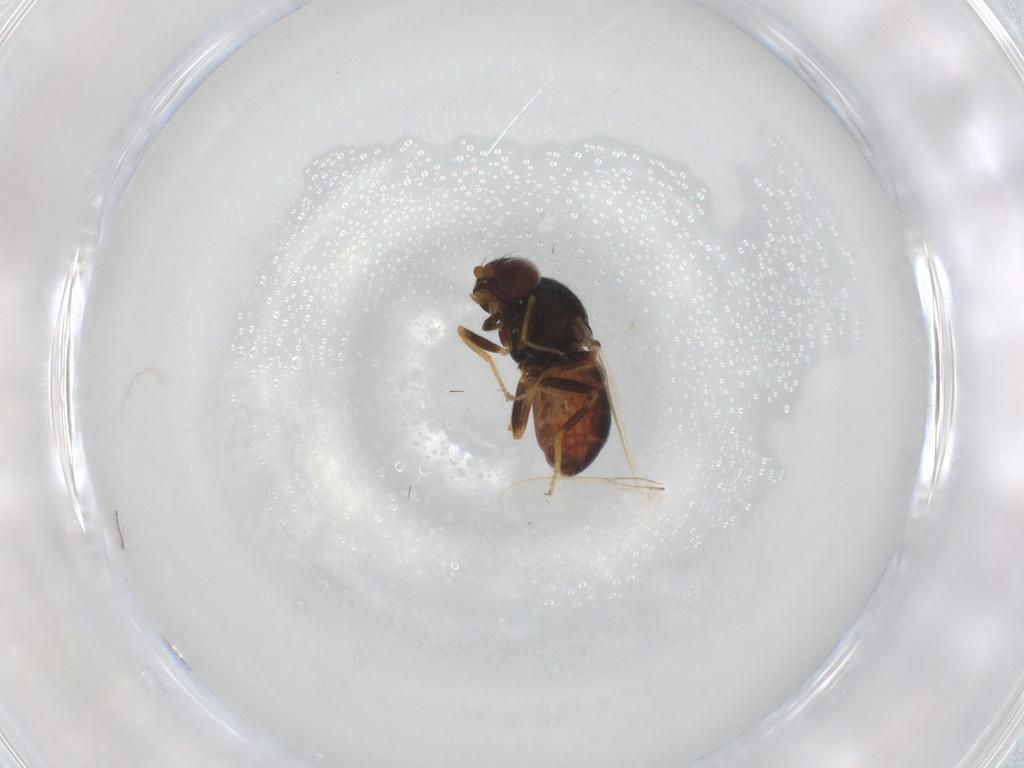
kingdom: Animalia
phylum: Arthropoda
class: Insecta
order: Diptera
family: Chloropidae
